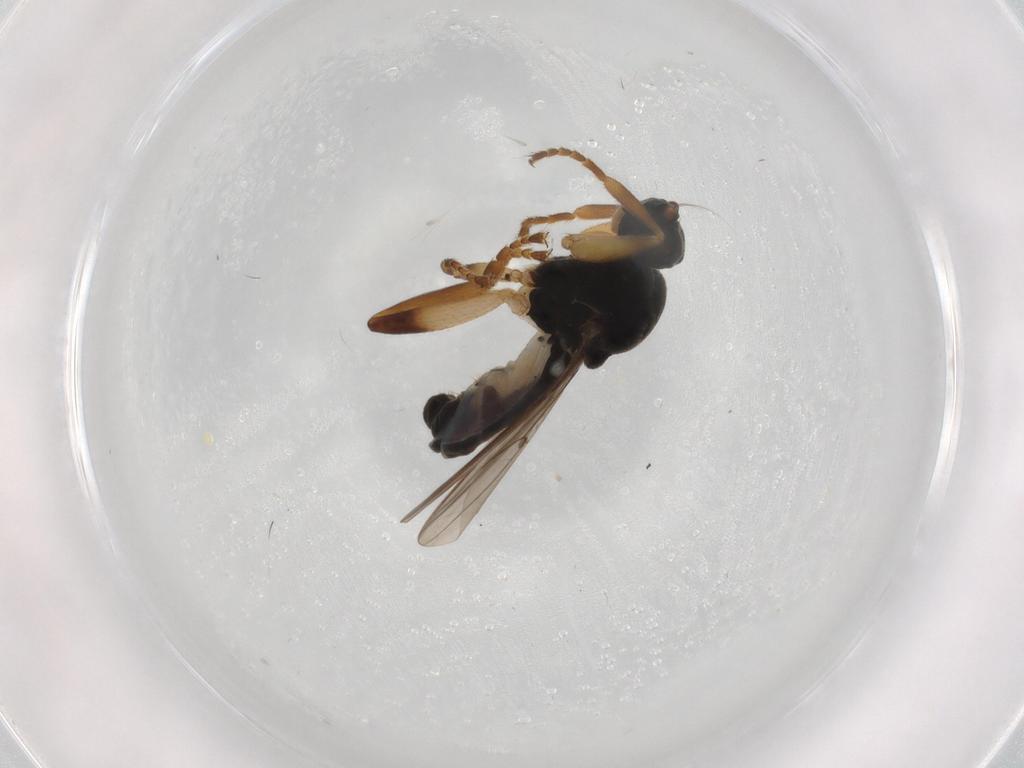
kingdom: Animalia
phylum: Arthropoda
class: Insecta
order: Diptera
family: Sphaeroceridae
